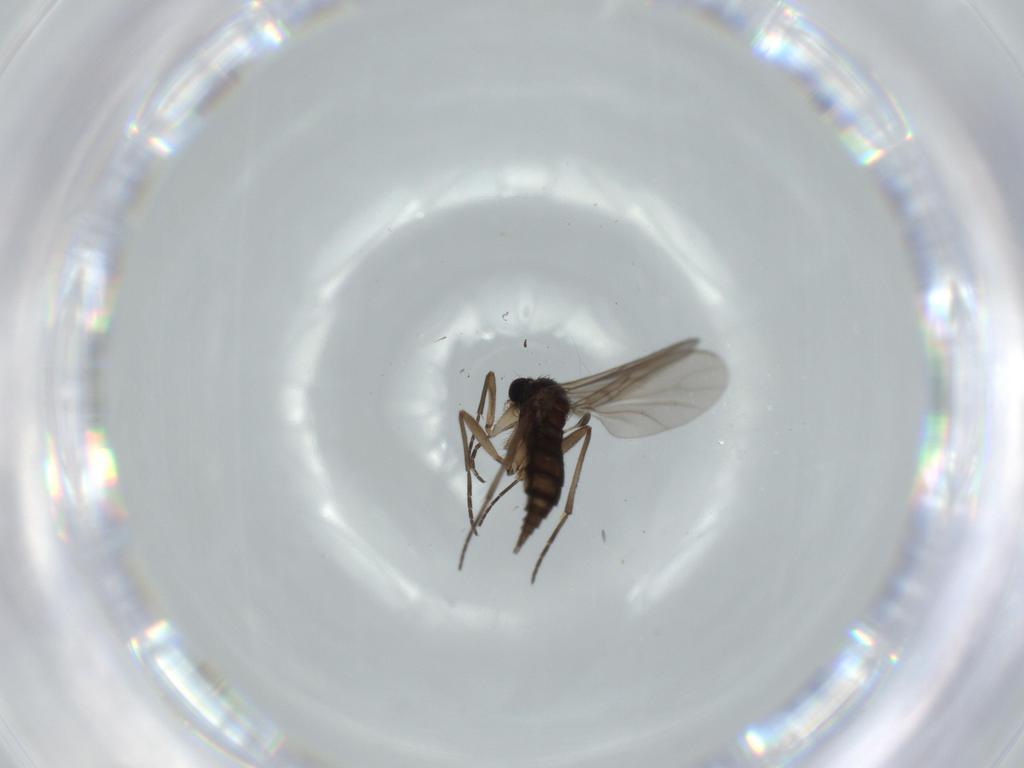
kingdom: Animalia
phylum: Arthropoda
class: Insecta
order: Diptera
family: Sciaridae
